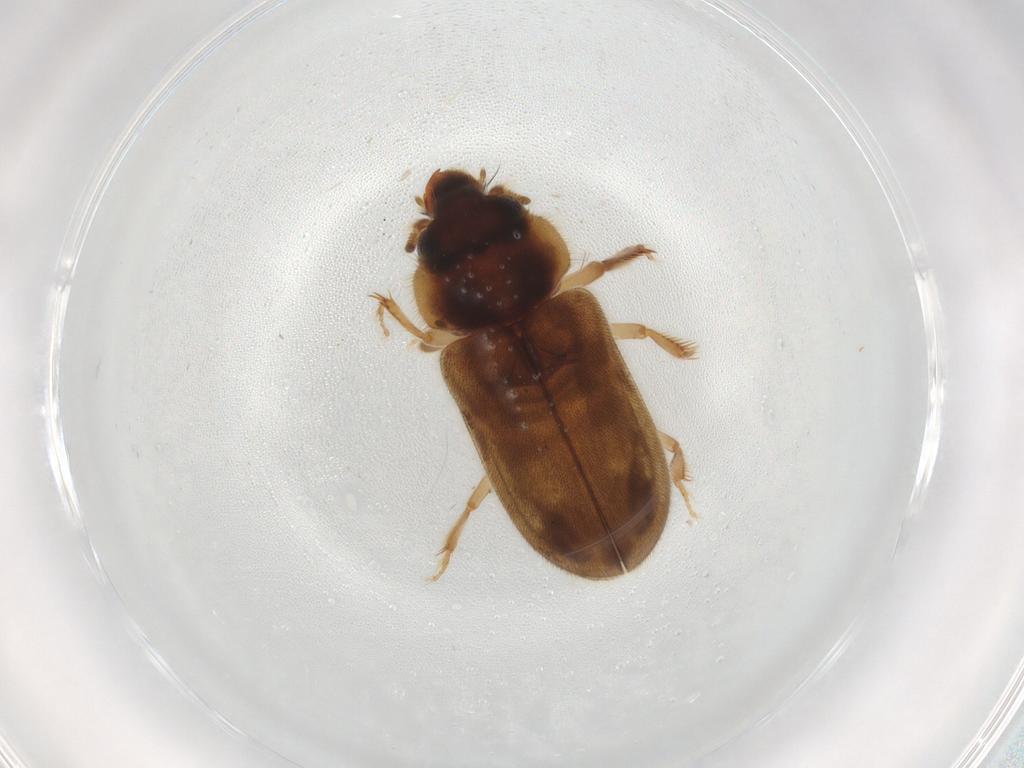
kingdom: Animalia
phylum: Arthropoda
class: Insecta
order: Coleoptera
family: Heteroceridae
